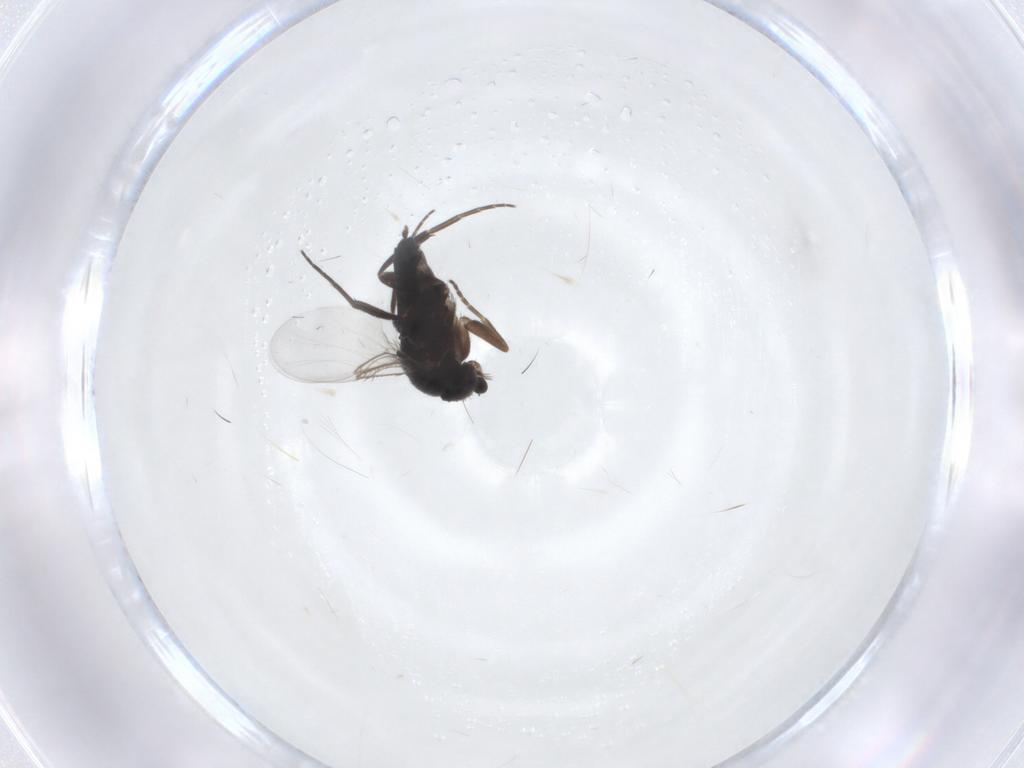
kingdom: Animalia
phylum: Arthropoda
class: Insecta
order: Diptera
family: Phoridae
